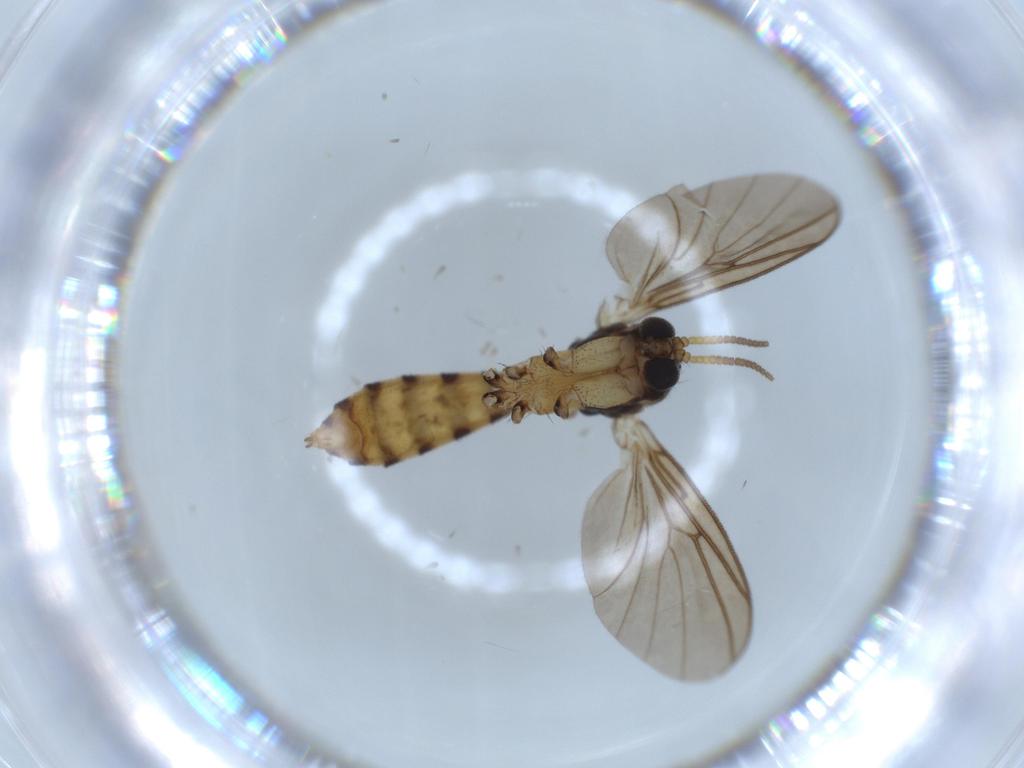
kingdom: Animalia
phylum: Arthropoda
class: Insecta
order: Diptera
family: Mycetophilidae
